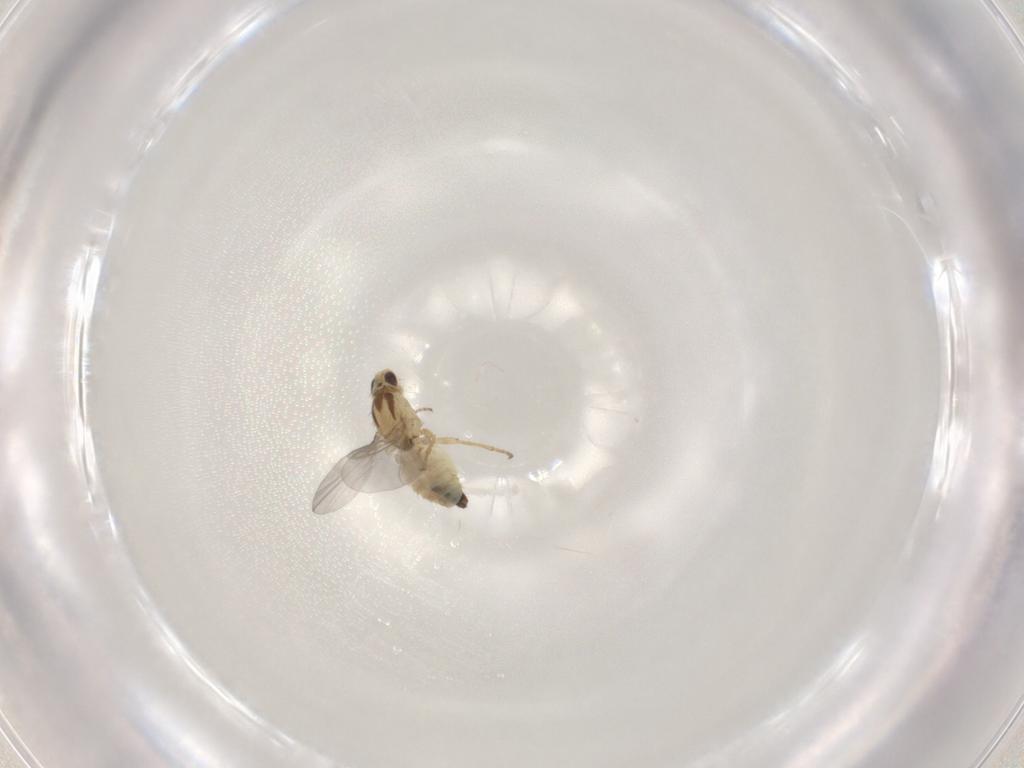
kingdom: Animalia
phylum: Arthropoda
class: Insecta
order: Diptera
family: Agromyzidae
